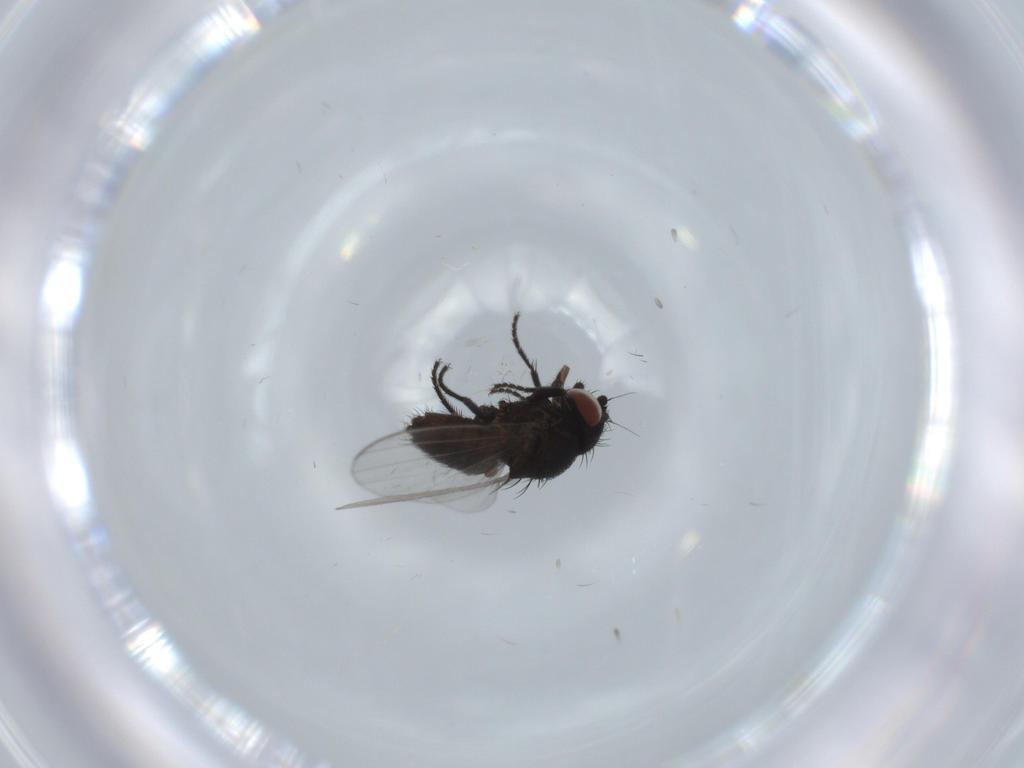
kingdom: Animalia
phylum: Arthropoda
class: Insecta
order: Diptera
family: Milichiidae
